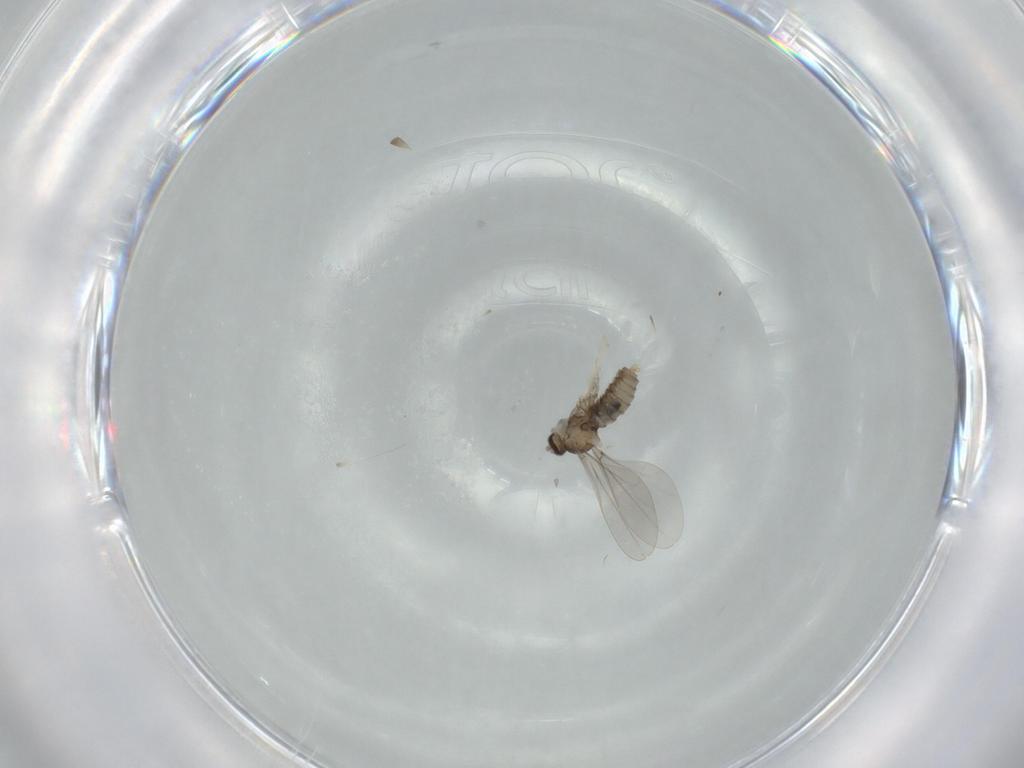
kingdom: Animalia
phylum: Arthropoda
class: Insecta
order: Diptera
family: Cecidomyiidae
